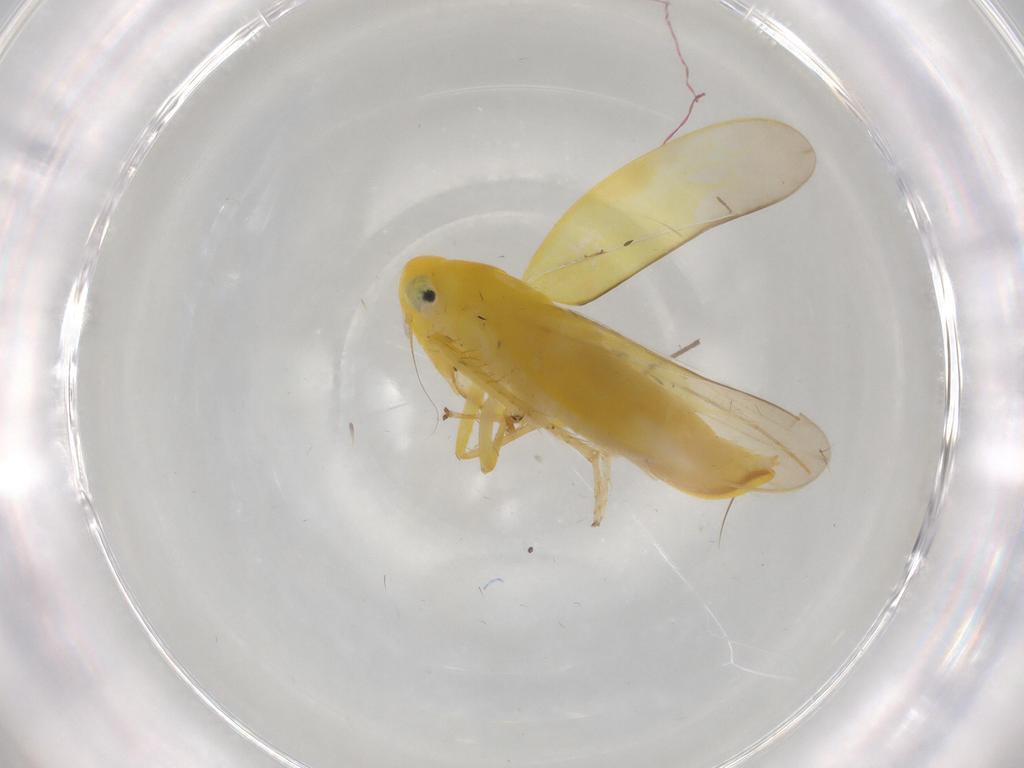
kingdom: Animalia
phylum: Arthropoda
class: Insecta
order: Hemiptera
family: Cicadellidae
